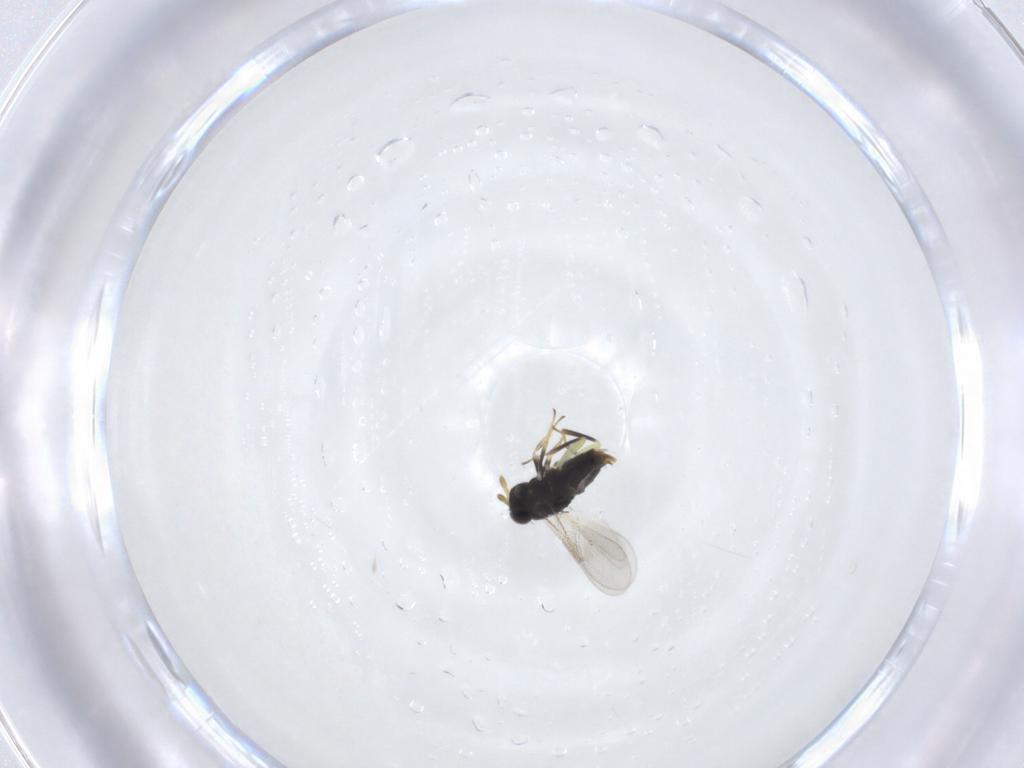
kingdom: Animalia
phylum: Arthropoda
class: Insecta
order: Hymenoptera
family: Aphelinidae
